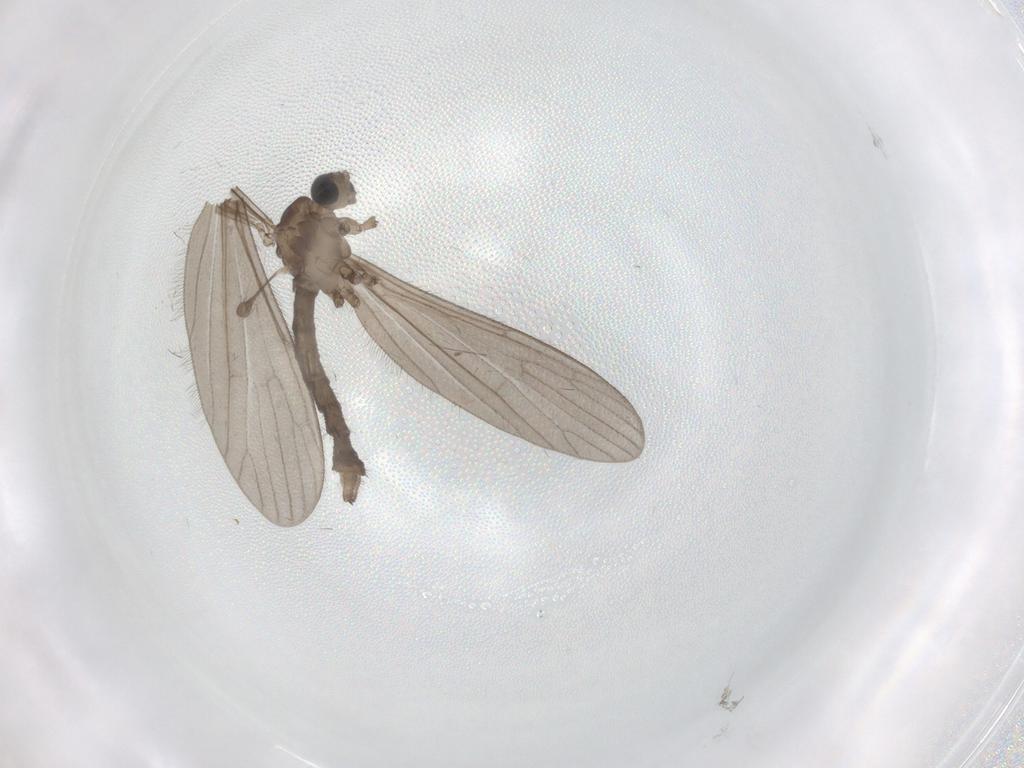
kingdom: Animalia
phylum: Arthropoda
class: Insecta
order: Diptera
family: Limoniidae
